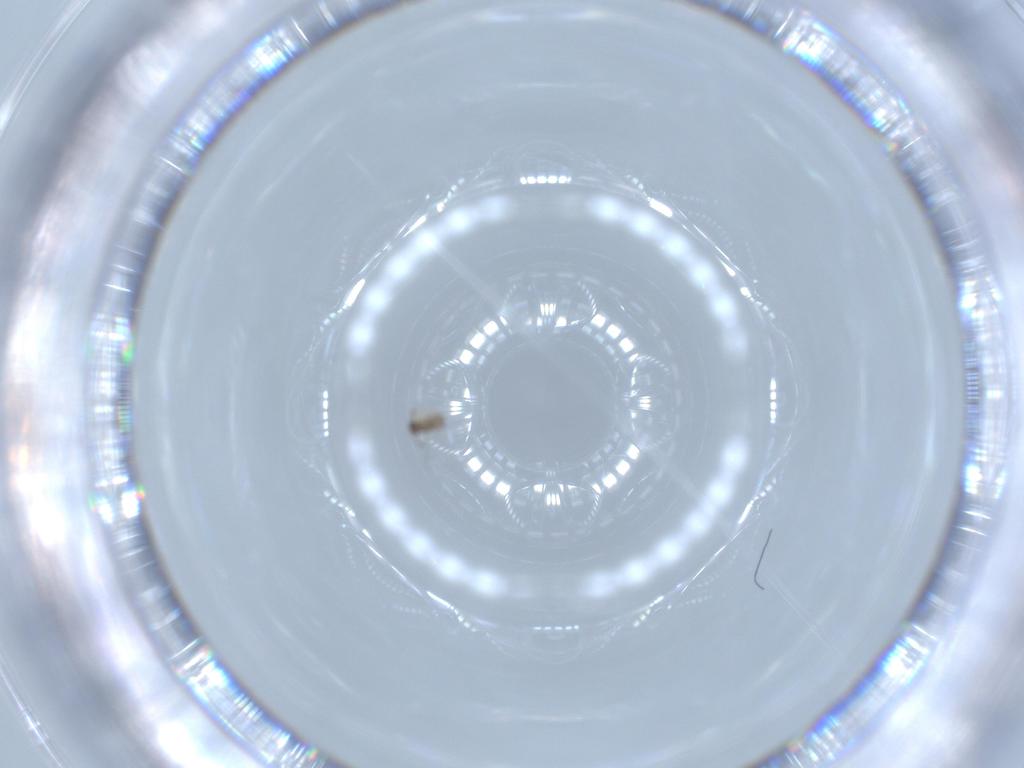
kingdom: Animalia
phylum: Arthropoda
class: Insecta
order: Hymenoptera
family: Mymaridae
